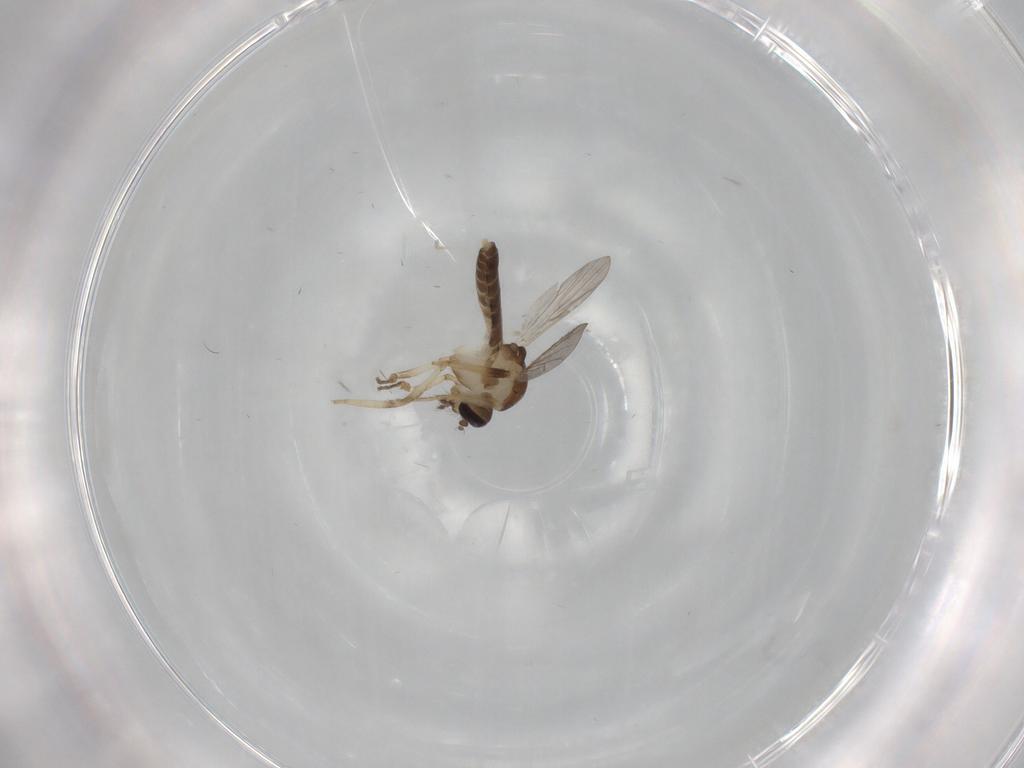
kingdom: Animalia
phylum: Arthropoda
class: Insecta
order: Diptera
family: Ceratopogonidae
